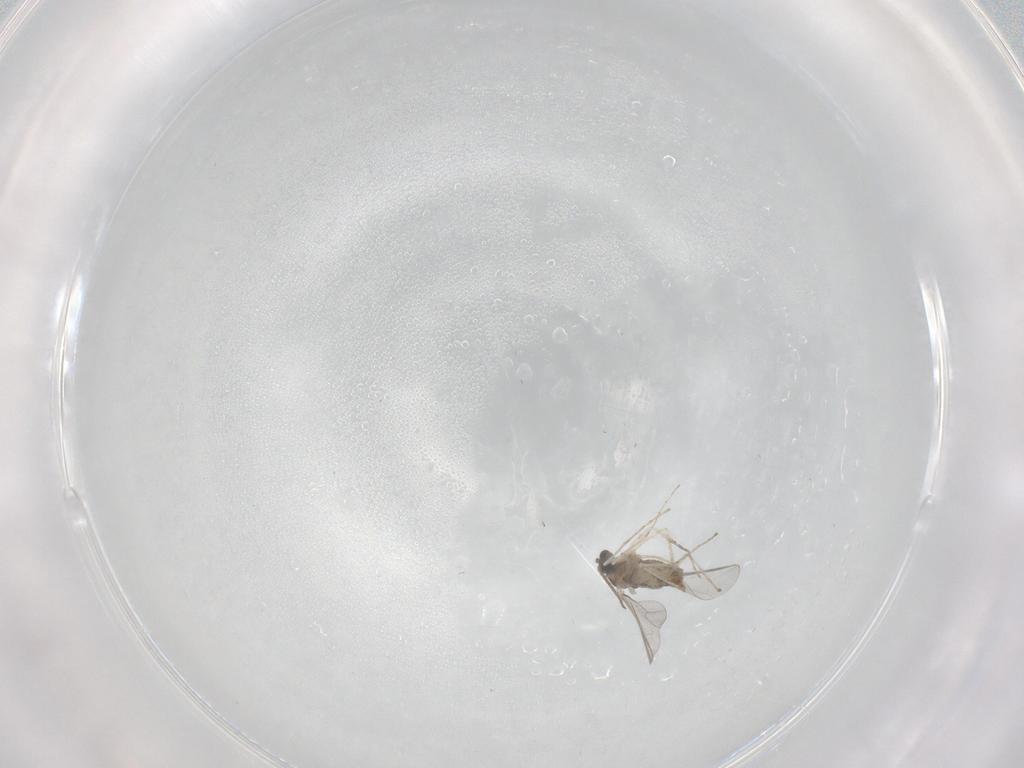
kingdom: Animalia
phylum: Arthropoda
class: Insecta
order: Diptera
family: Cecidomyiidae
